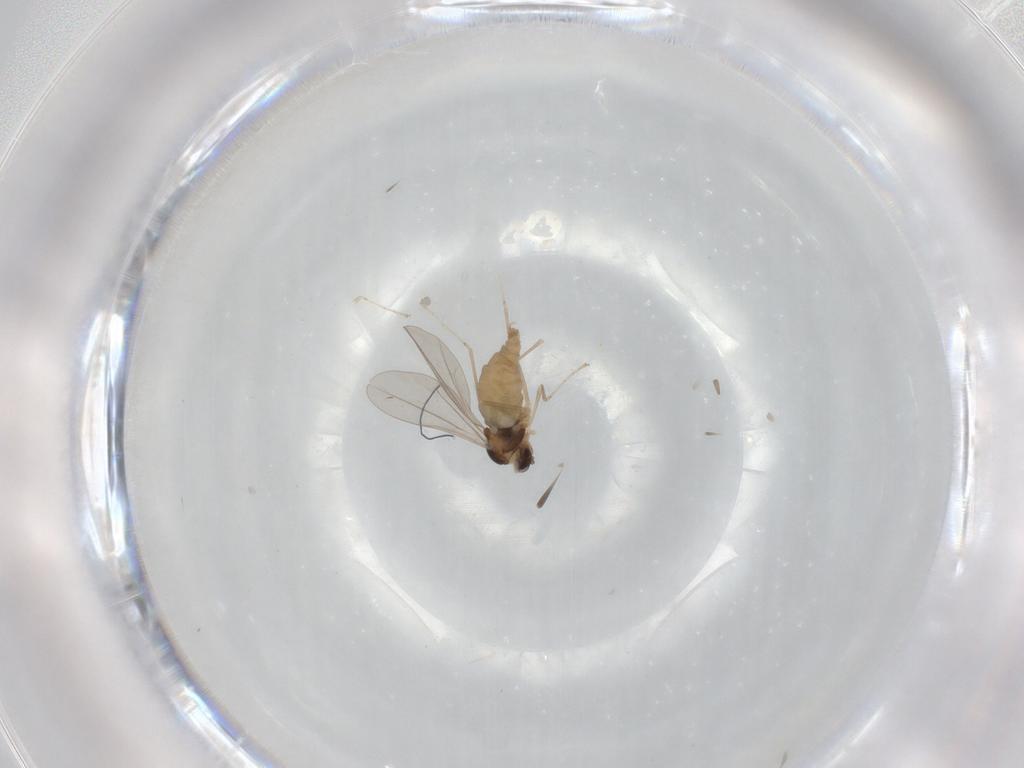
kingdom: Animalia
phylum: Arthropoda
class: Insecta
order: Diptera
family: Cecidomyiidae
